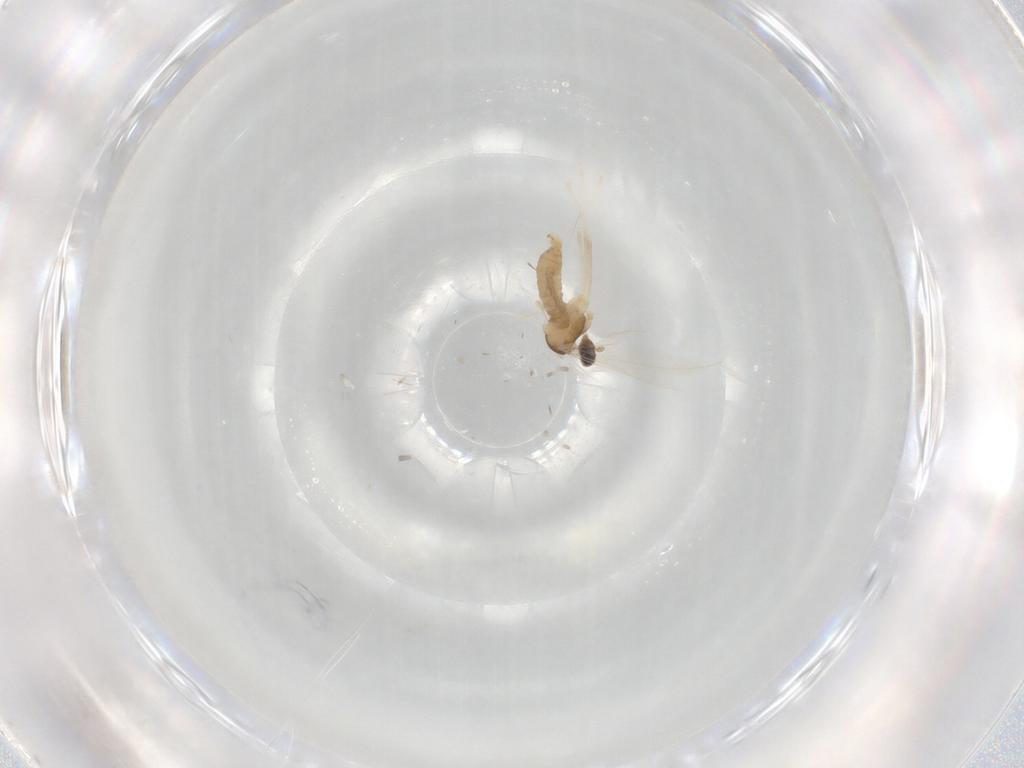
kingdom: Animalia
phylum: Arthropoda
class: Insecta
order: Diptera
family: Cecidomyiidae
